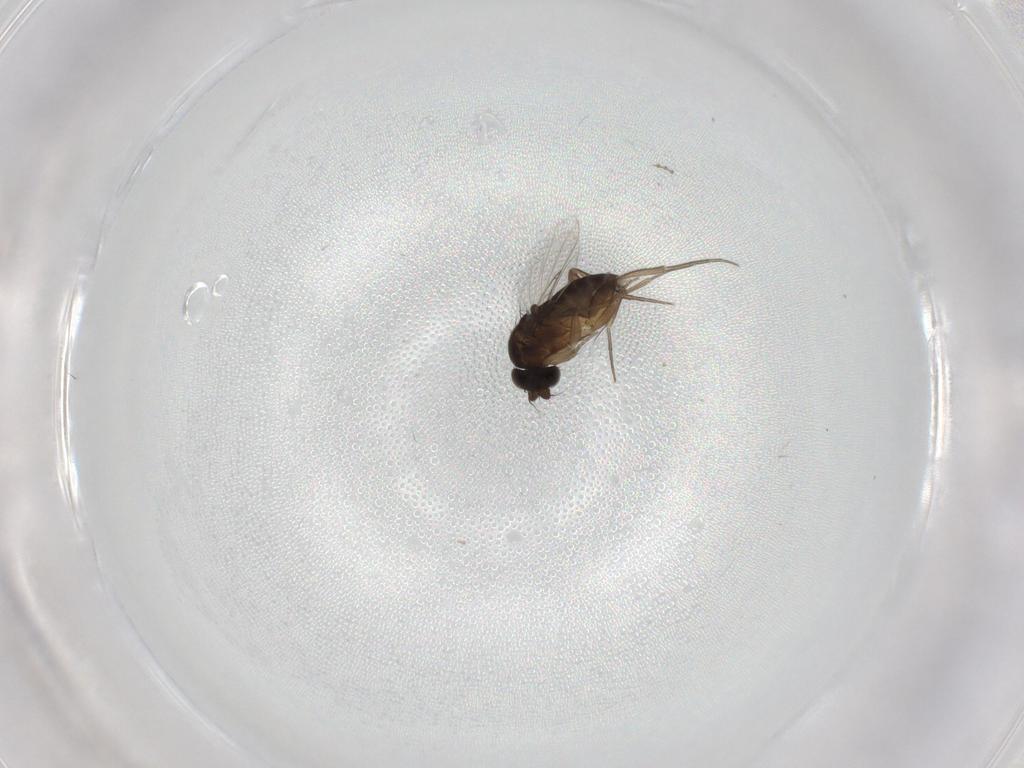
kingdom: Animalia
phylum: Arthropoda
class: Insecta
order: Diptera
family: Phoridae
